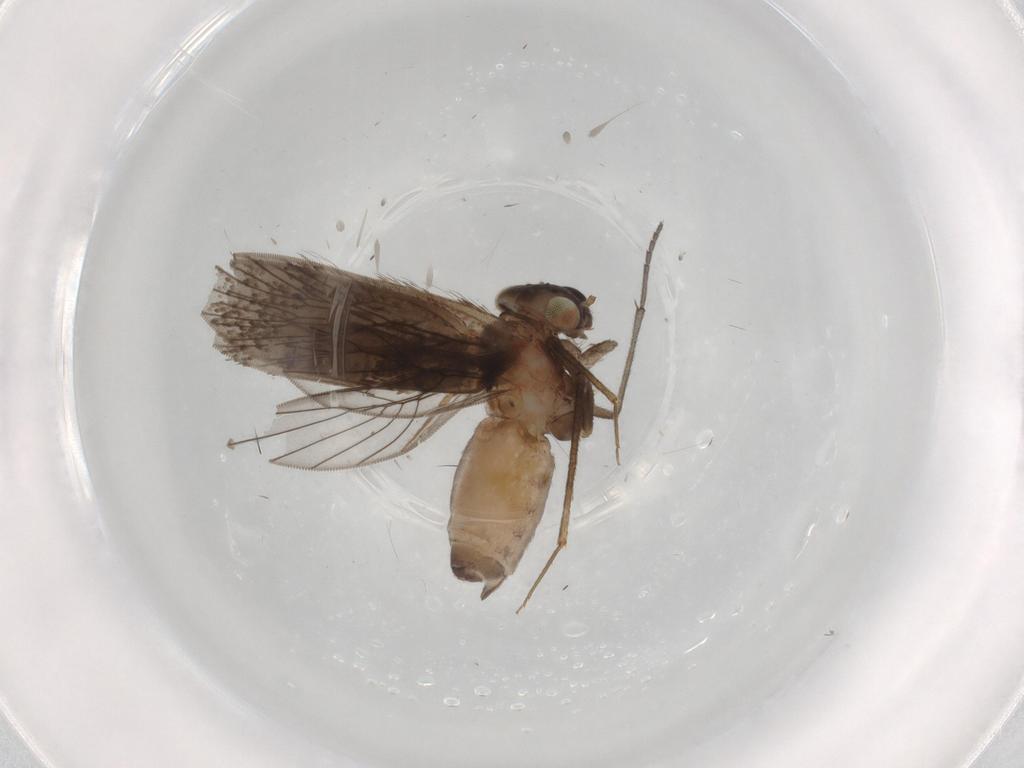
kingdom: Animalia
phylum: Arthropoda
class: Insecta
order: Psocodea
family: Lepidopsocidae
